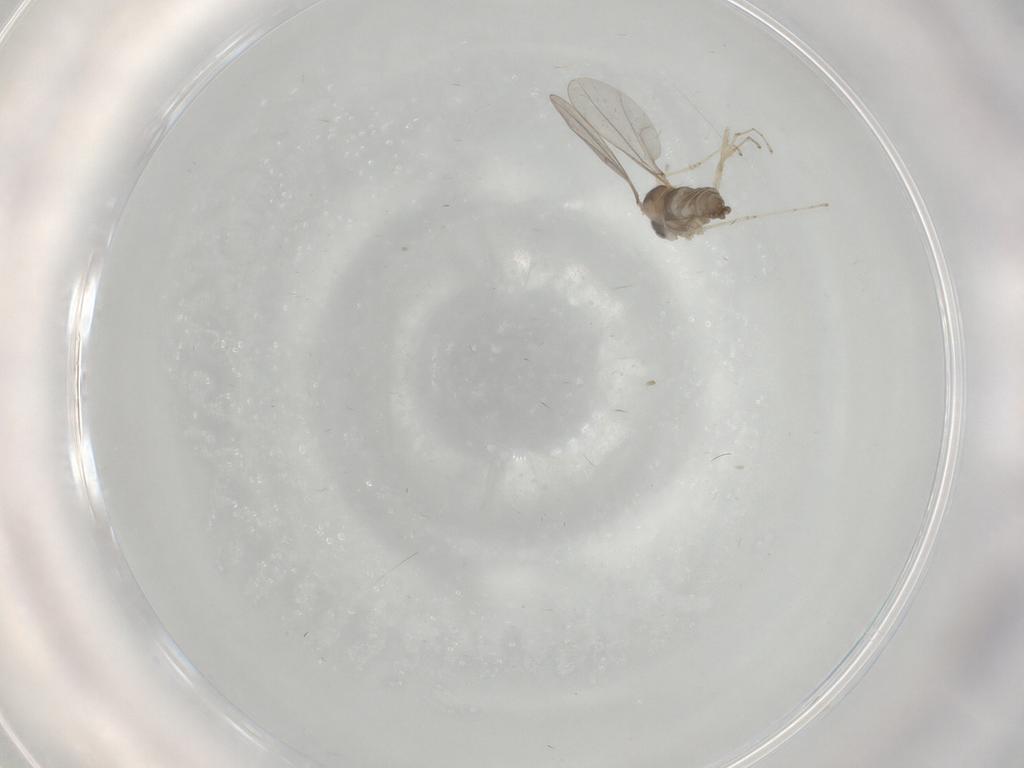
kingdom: Animalia
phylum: Arthropoda
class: Insecta
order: Diptera
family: Cecidomyiidae
